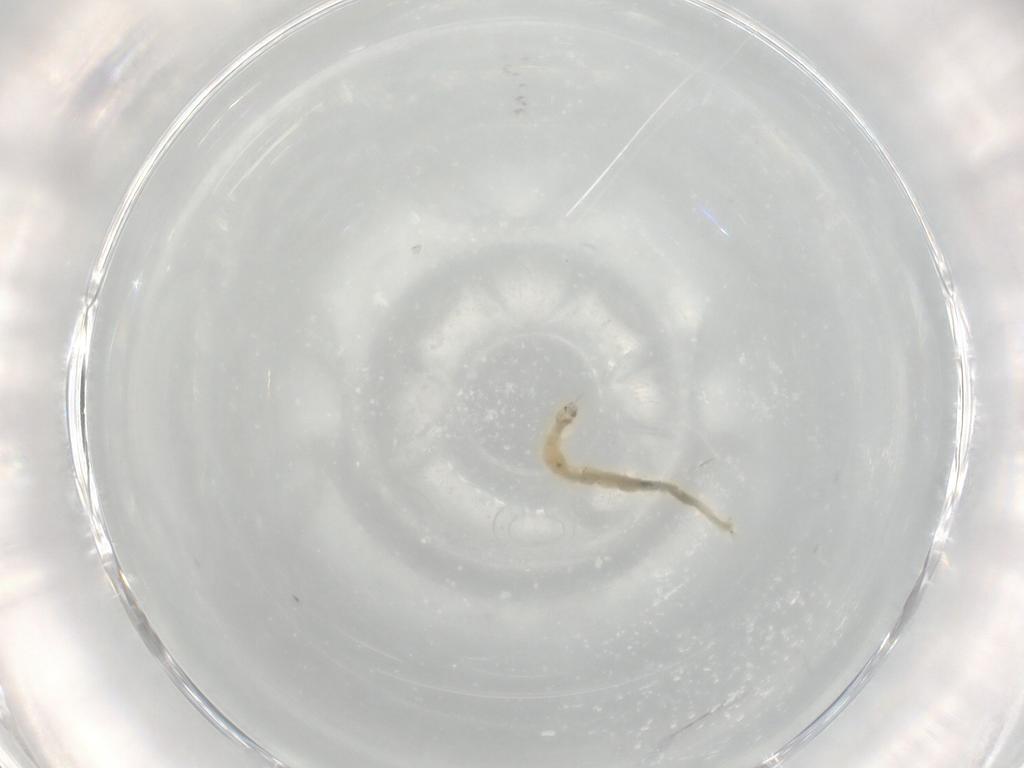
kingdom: Animalia
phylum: Arthropoda
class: Insecta
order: Diptera
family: Chironomidae
